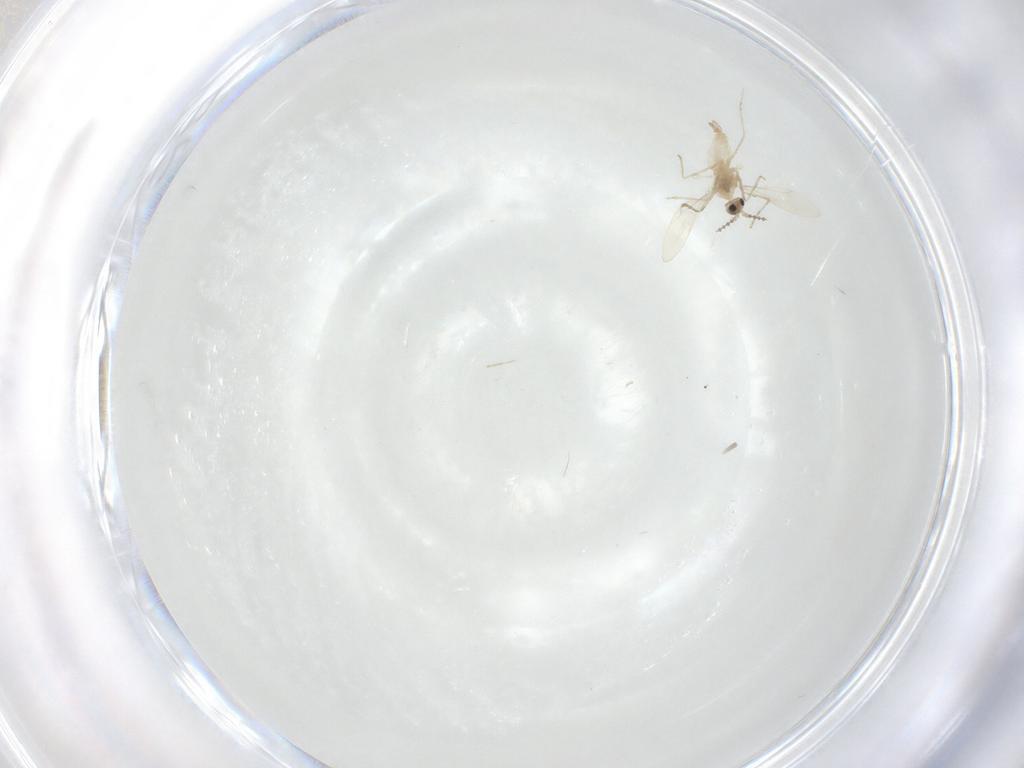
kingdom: Animalia
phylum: Arthropoda
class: Insecta
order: Diptera
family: Cecidomyiidae
